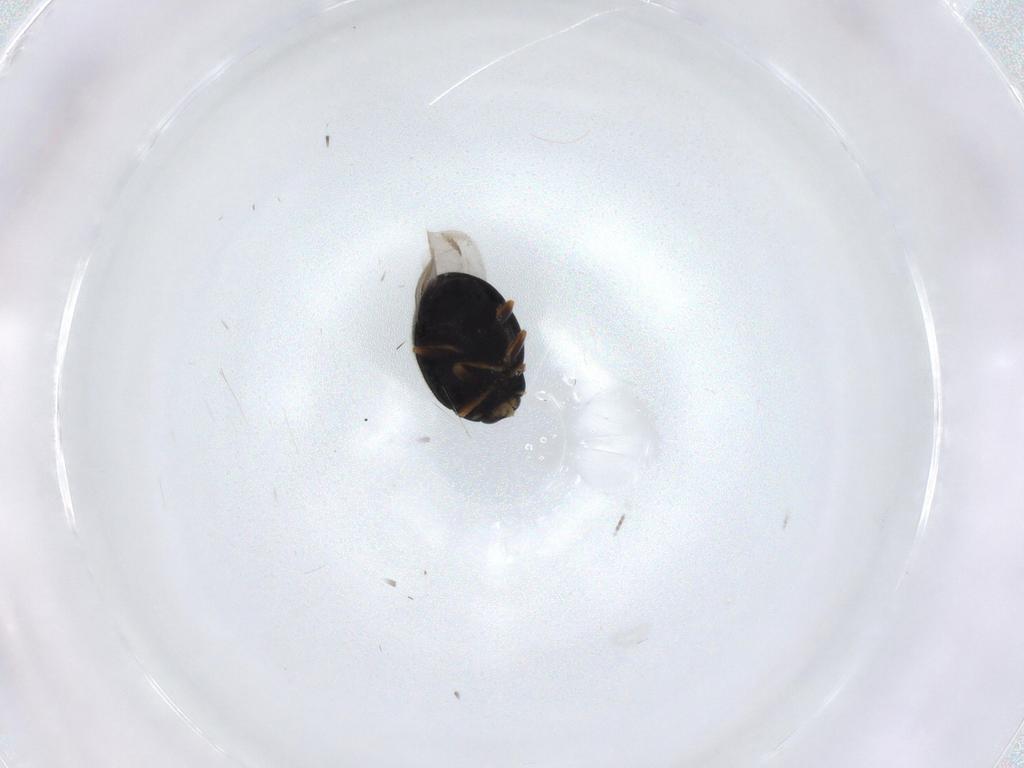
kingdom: Animalia
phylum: Arthropoda
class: Insecta
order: Coleoptera
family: Coccinellidae
